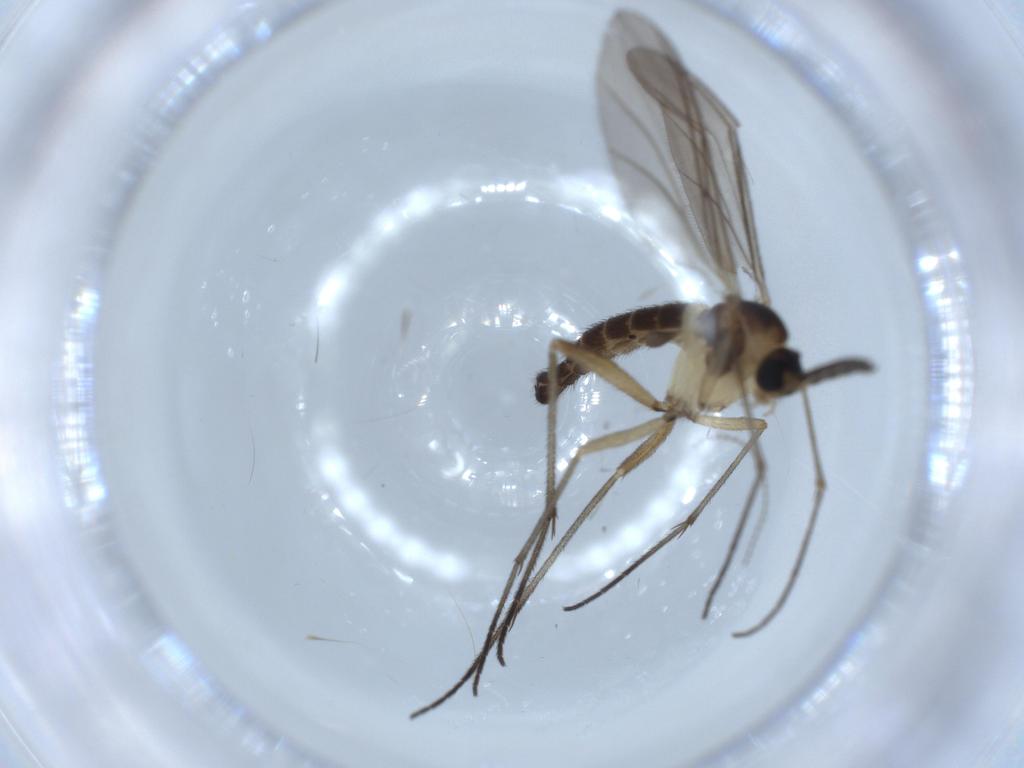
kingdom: Animalia
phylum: Arthropoda
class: Insecta
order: Diptera
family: Sciaridae
